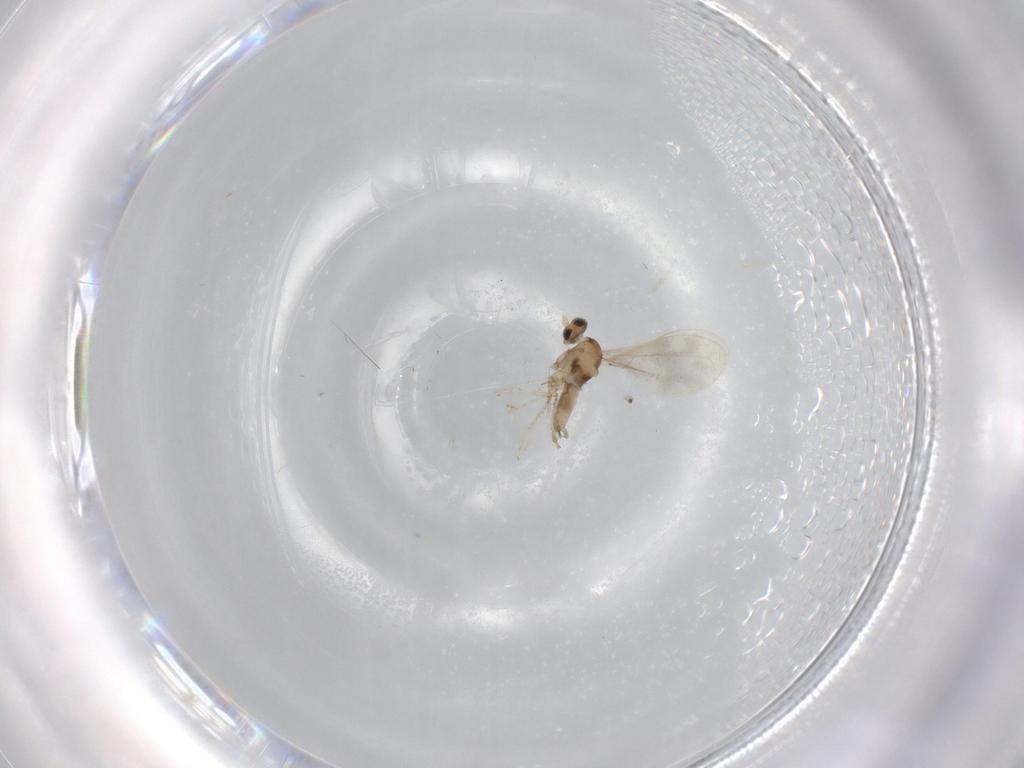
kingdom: Animalia
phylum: Arthropoda
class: Insecta
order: Diptera
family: Cecidomyiidae
